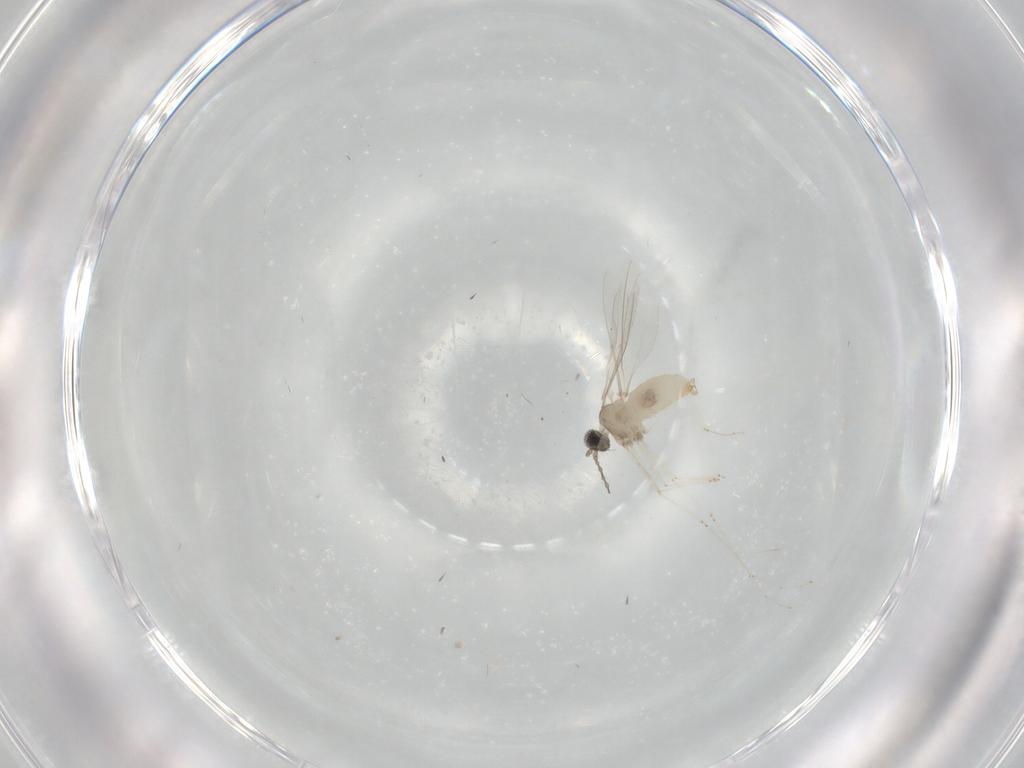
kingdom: Animalia
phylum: Arthropoda
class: Insecta
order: Diptera
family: Cecidomyiidae
